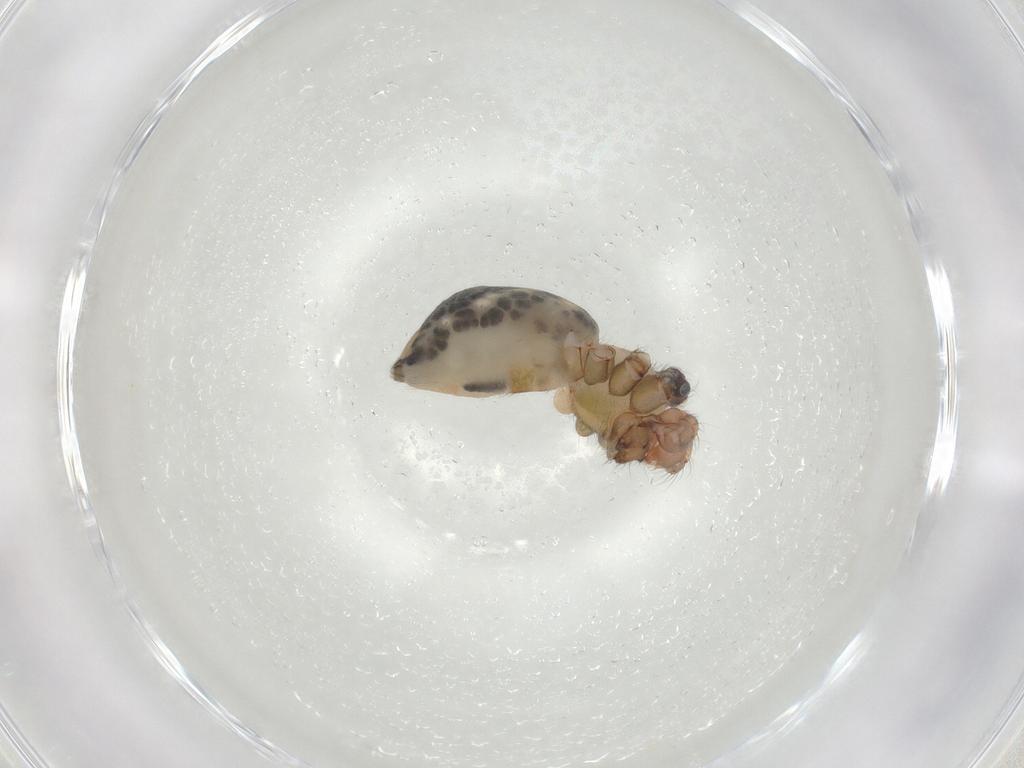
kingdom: Animalia
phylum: Arthropoda
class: Arachnida
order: Araneae
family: Pholcidae
